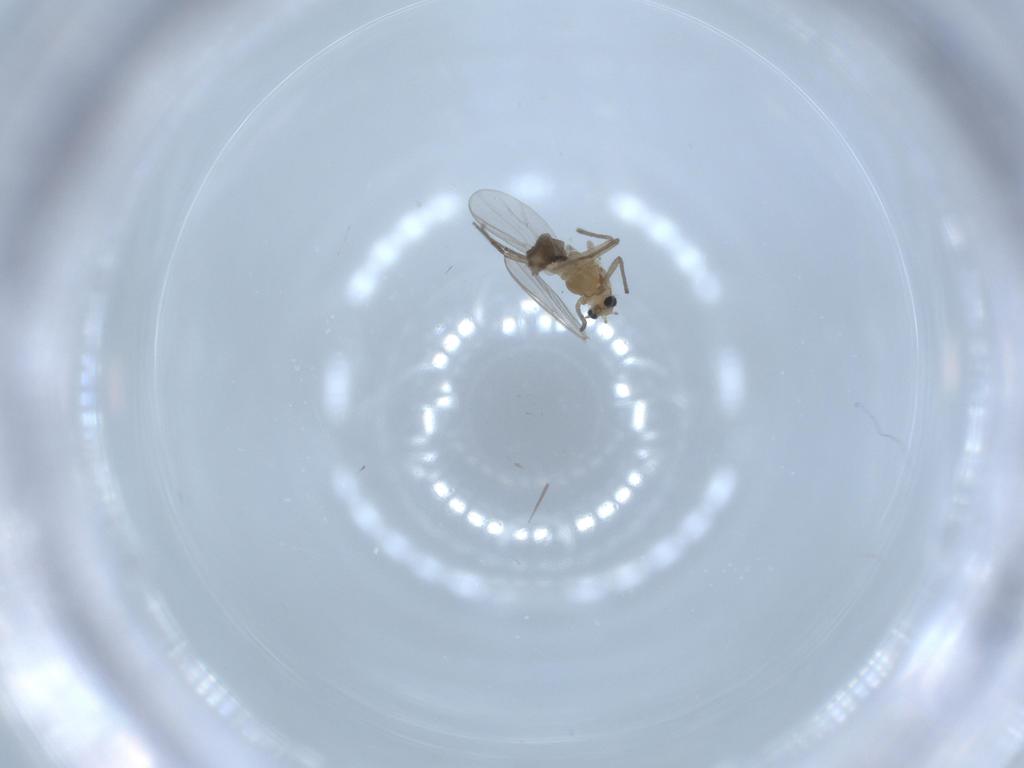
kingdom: Animalia
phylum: Arthropoda
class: Insecta
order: Diptera
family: Chironomidae
